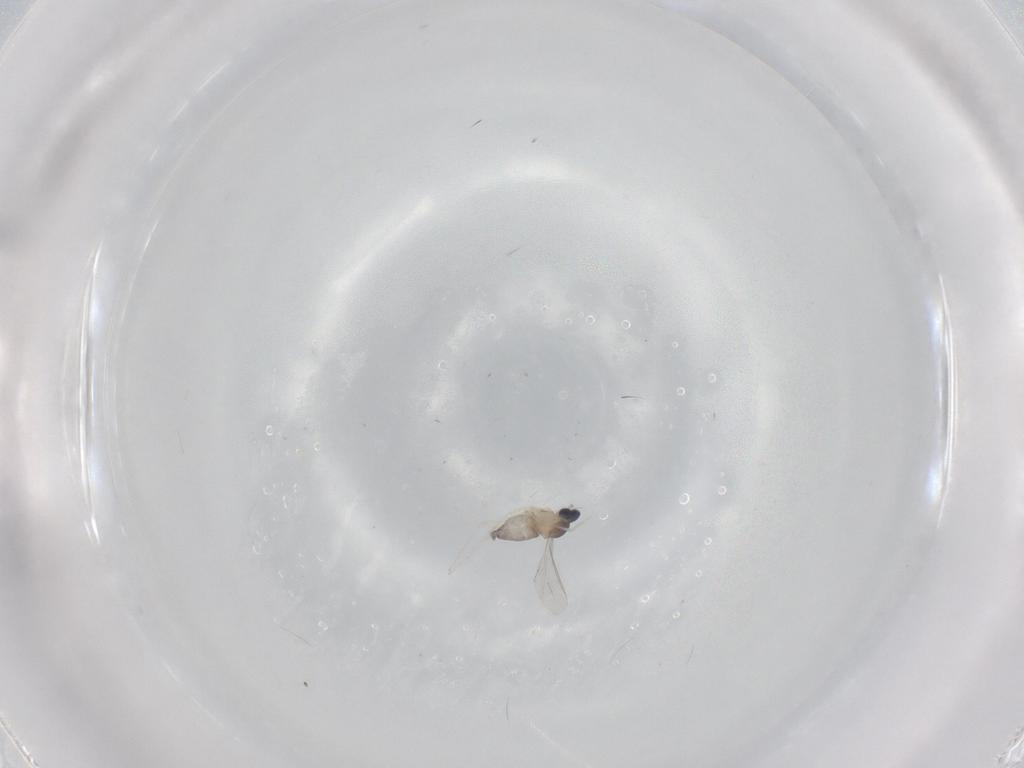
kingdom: Animalia
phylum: Arthropoda
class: Insecta
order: Diptera
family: Cecidomyiidae
